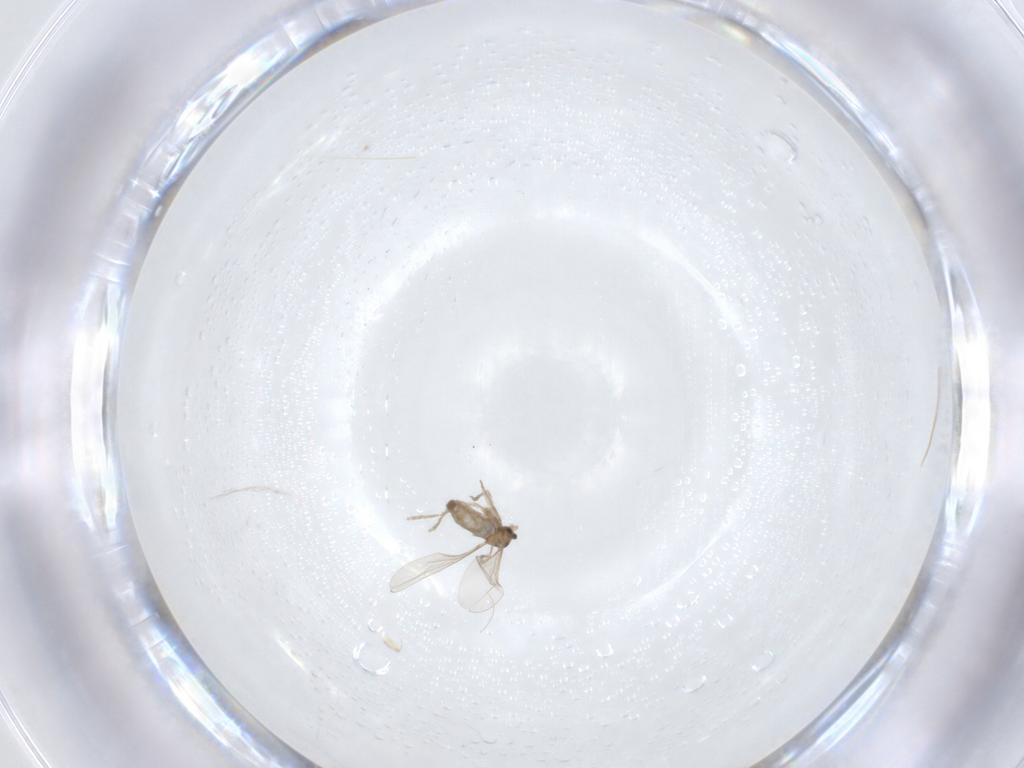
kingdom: Animalia
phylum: Arthropoda
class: Insecta
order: Diptera
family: Cecidomyiidae
